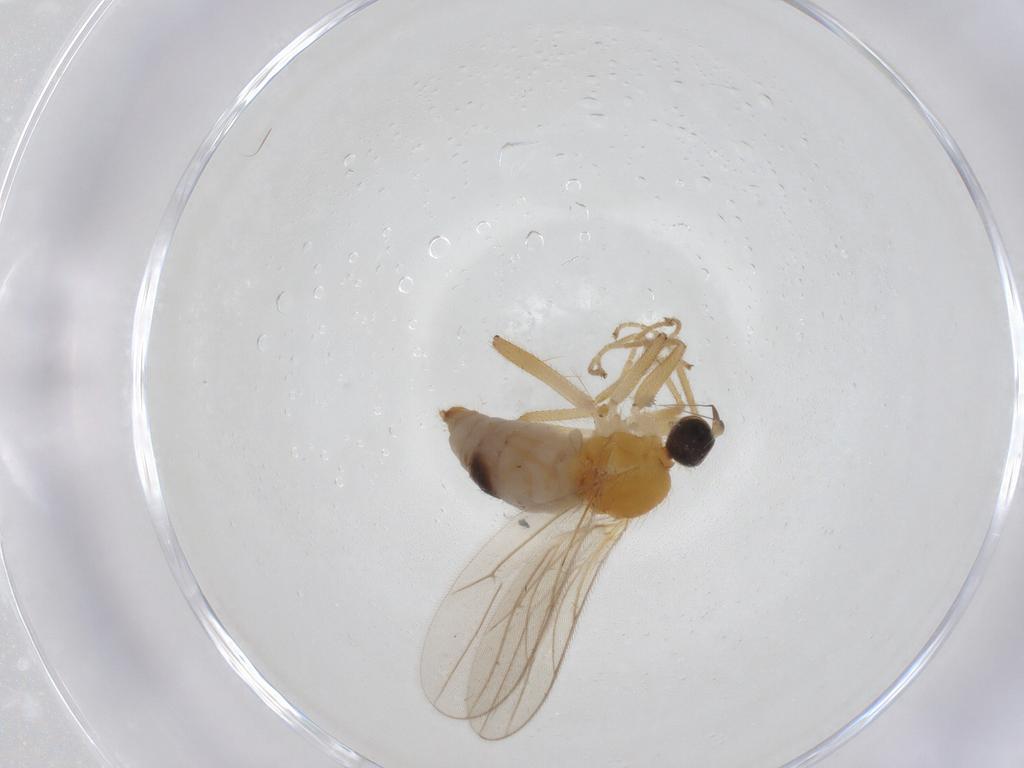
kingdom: Animalia
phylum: Arthropoda
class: Insecta
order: Diptera
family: Hybotidae
